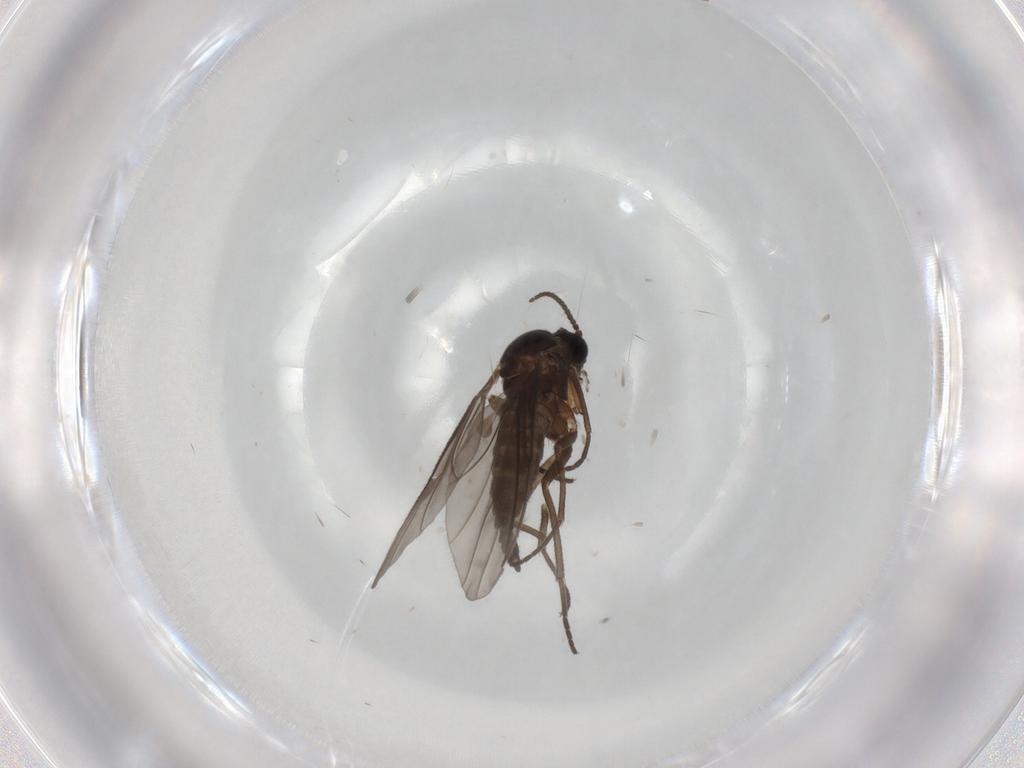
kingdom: Animalia
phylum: Arthropoda
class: Insecta
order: Diptera
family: Sciaridae
